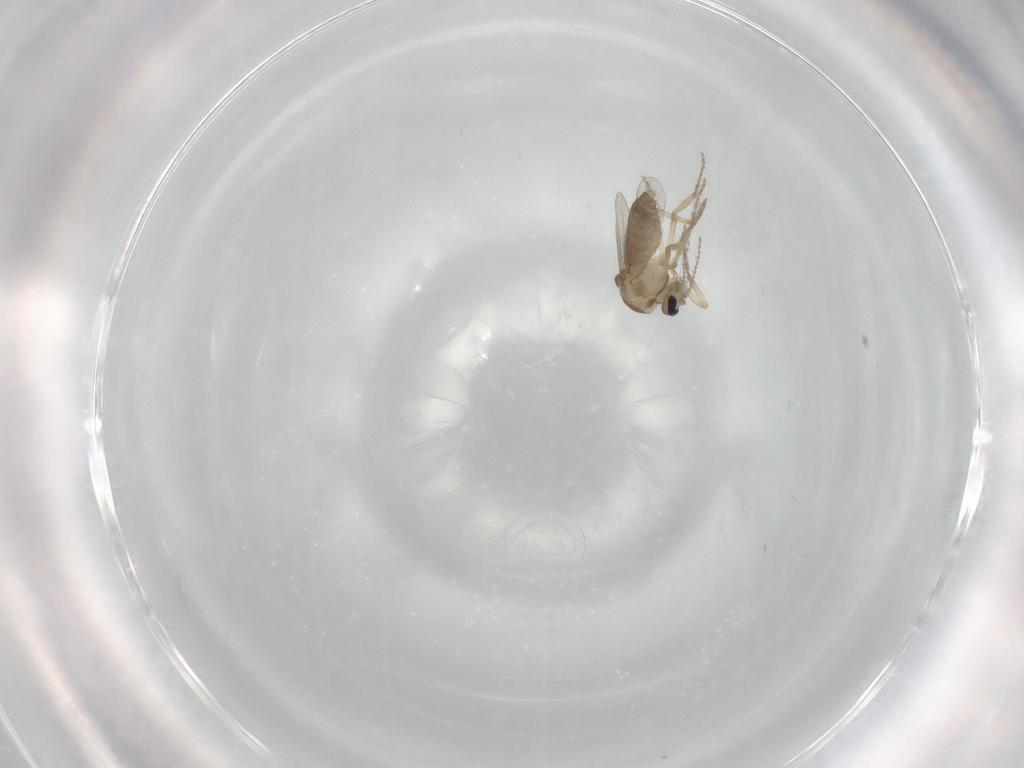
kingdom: Animalia
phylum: Arthropoda
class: Insecta
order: Diptera
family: Ceratopogonidae
